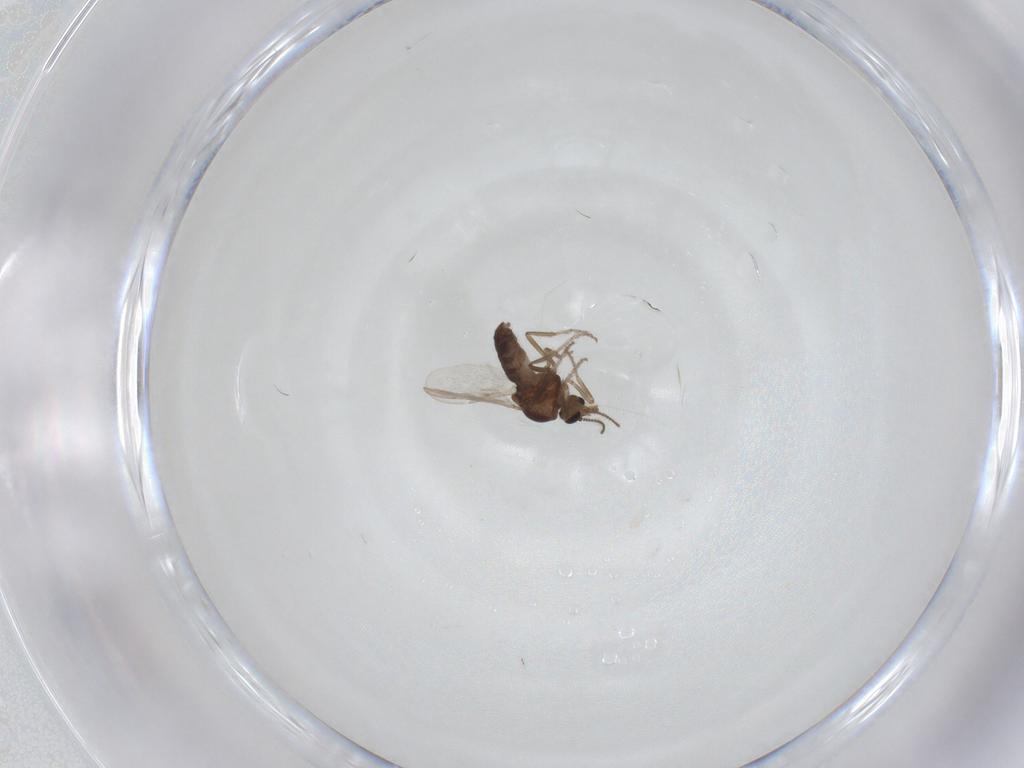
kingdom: Animalia
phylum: Arthropoda
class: Insecta
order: Diptera
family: Ceratopogonidae
